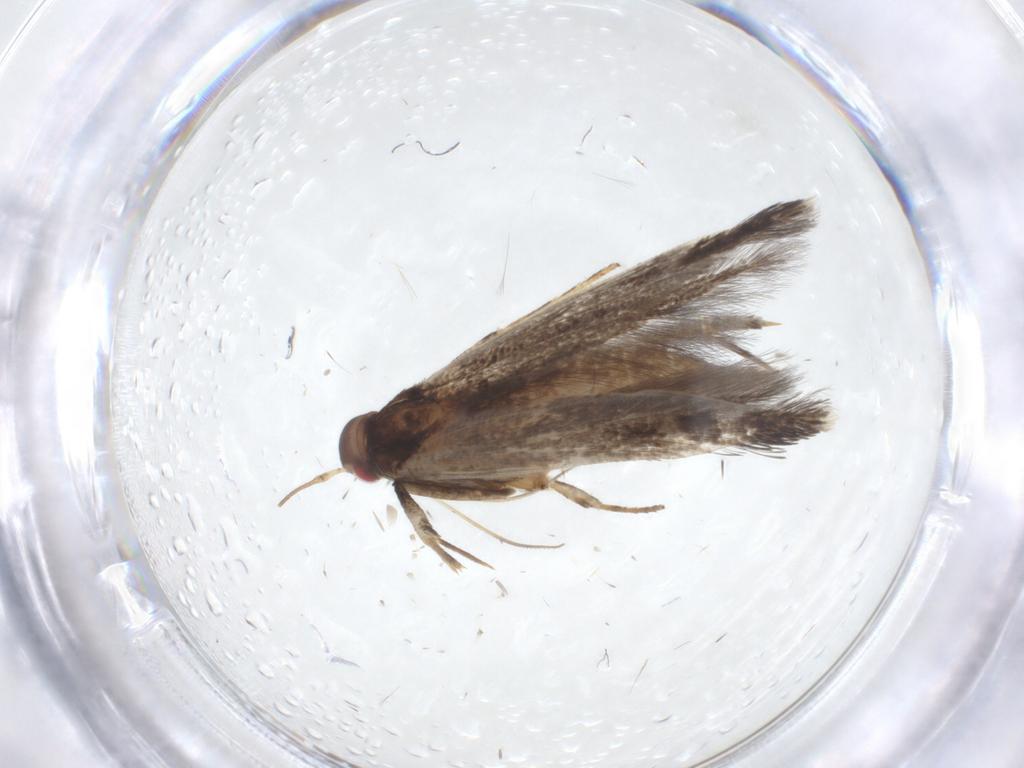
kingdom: Animalia
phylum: Arthropoda
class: Insecta
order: Lepidoptera
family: Gelechiidae
